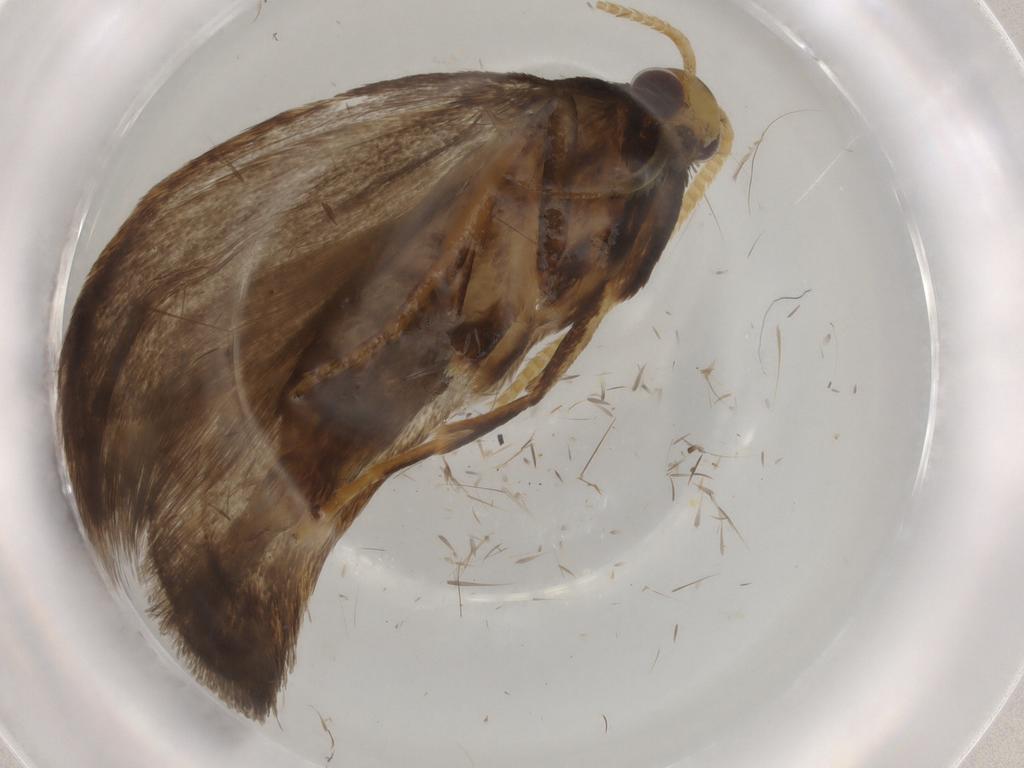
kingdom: Animalia
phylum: Arthropoda
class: Insecta
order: Lepidoptera
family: Lecithoceridae
